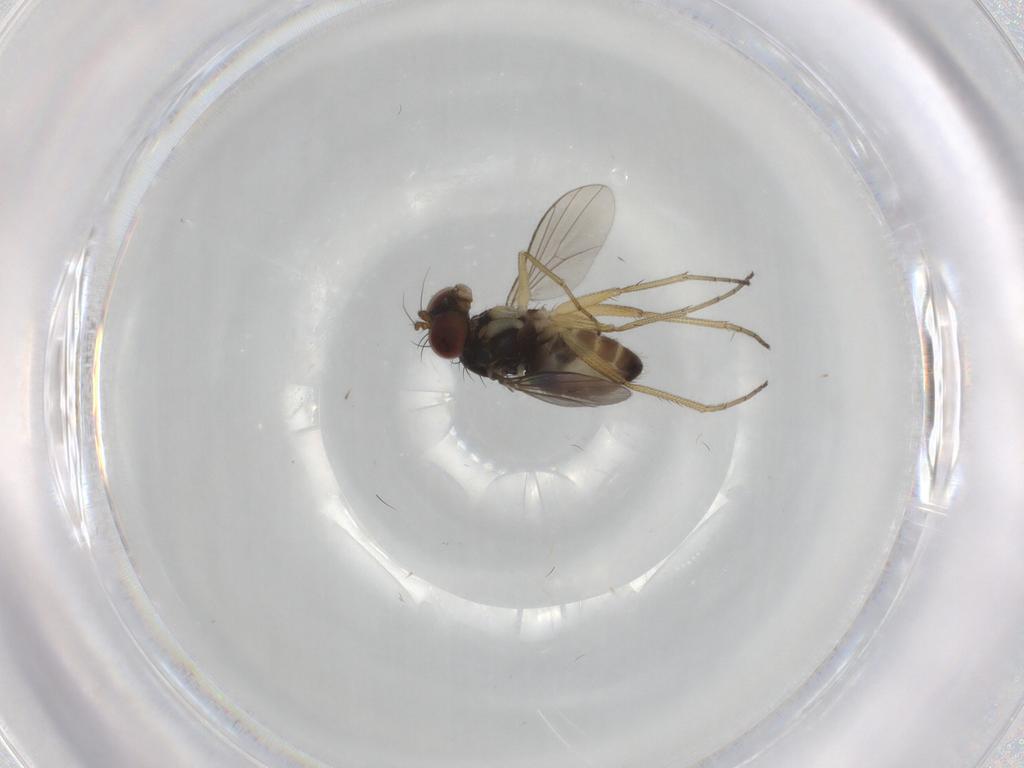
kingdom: Animalia
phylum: Arthropoda
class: Insecta
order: Diptera
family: Dolichopodidae
